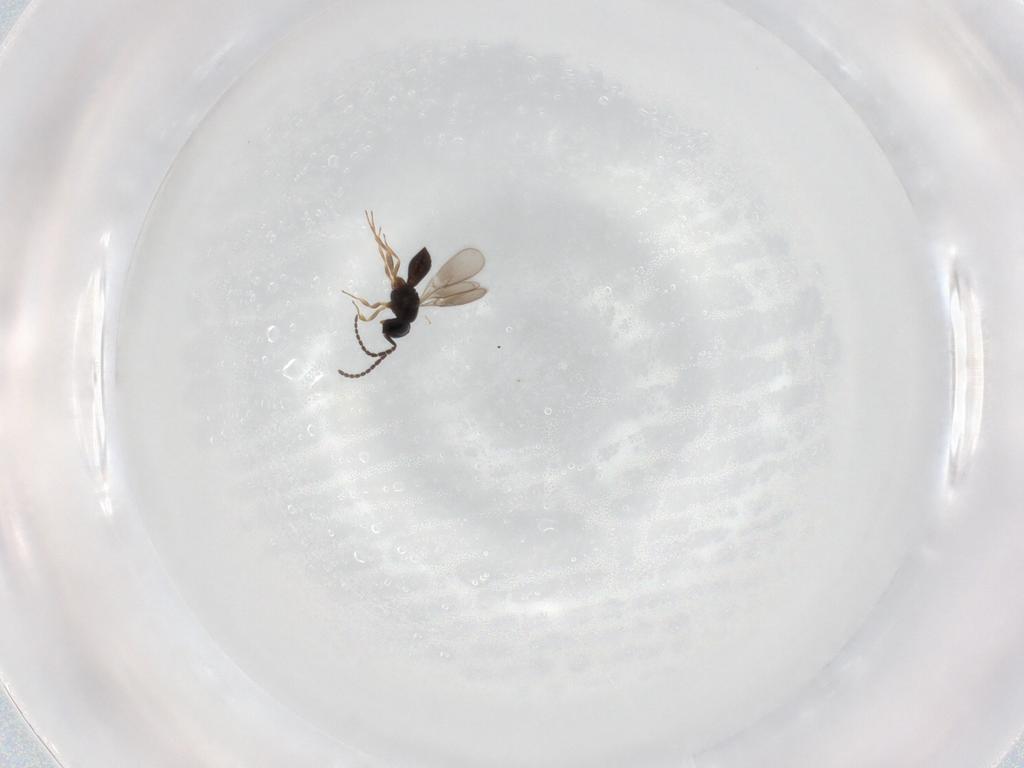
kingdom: Animalia
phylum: Arthropoda
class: Insecta
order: Hymenoptera
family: Scelionidae
